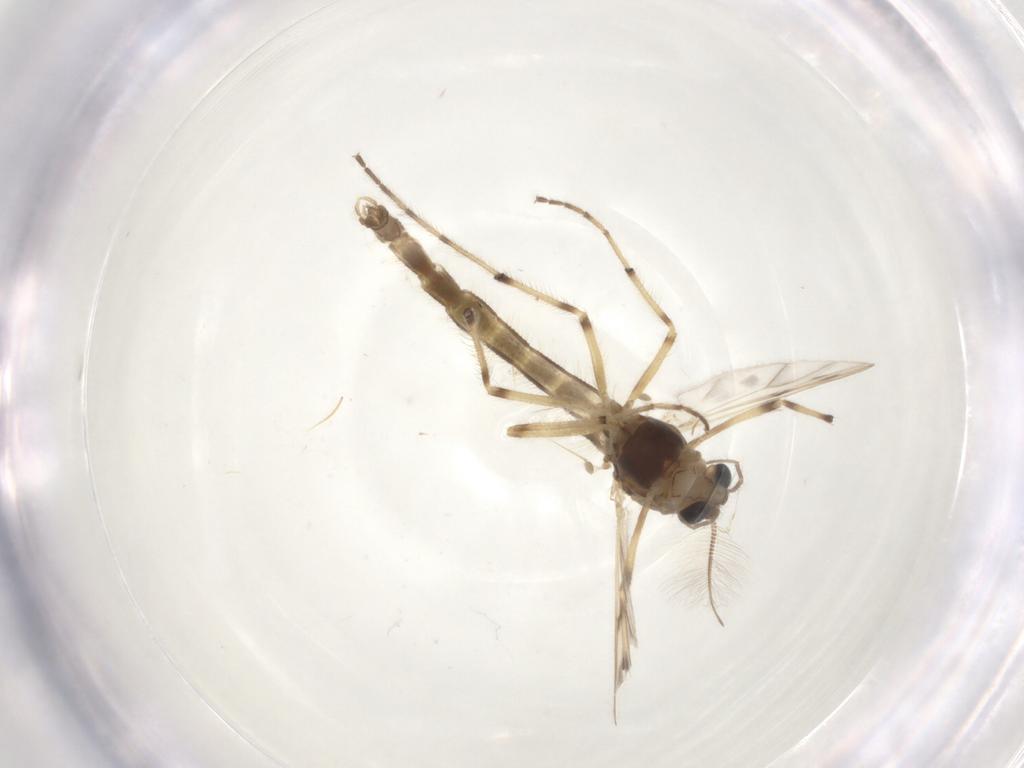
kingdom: Animalia
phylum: Arthropoda
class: Insecta
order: Diptera
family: Chironomidae
